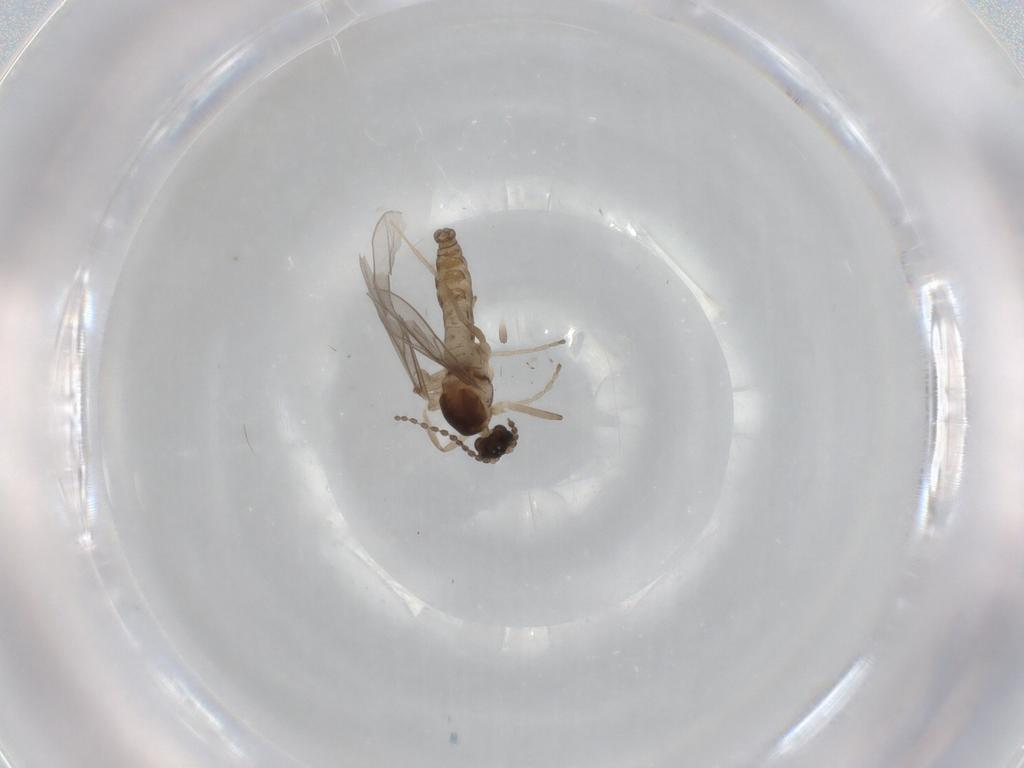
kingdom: Animalia
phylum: Arthropoda
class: Insecta
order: Diptera
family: Cecidomyiidae
